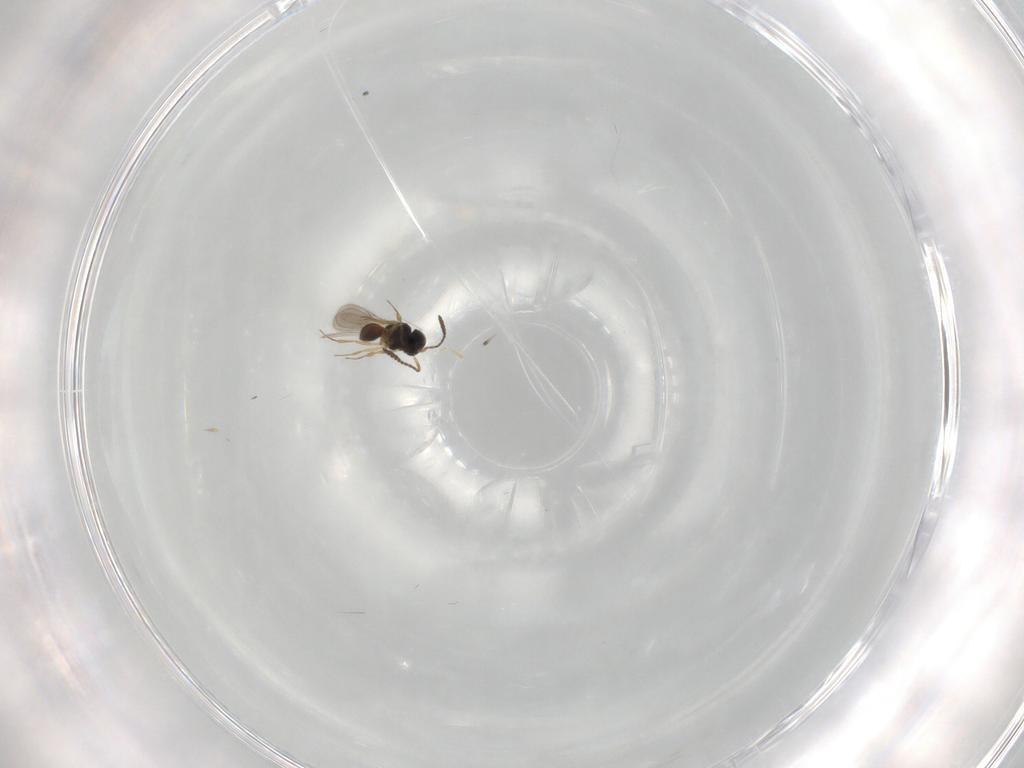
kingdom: Animalia
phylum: Arthropoda
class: Insecta
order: Hymenoptera
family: Scelionidae
